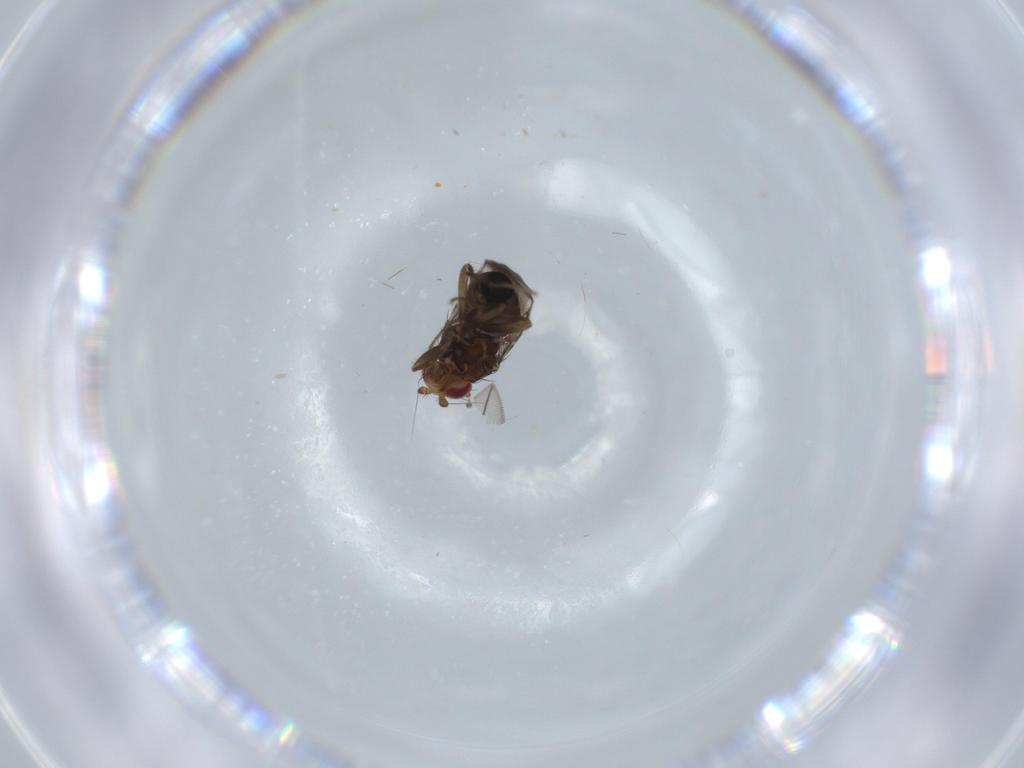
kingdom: Animalia
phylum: Arthropoda
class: Insecta
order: Diptera
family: Sphaeroceridae
